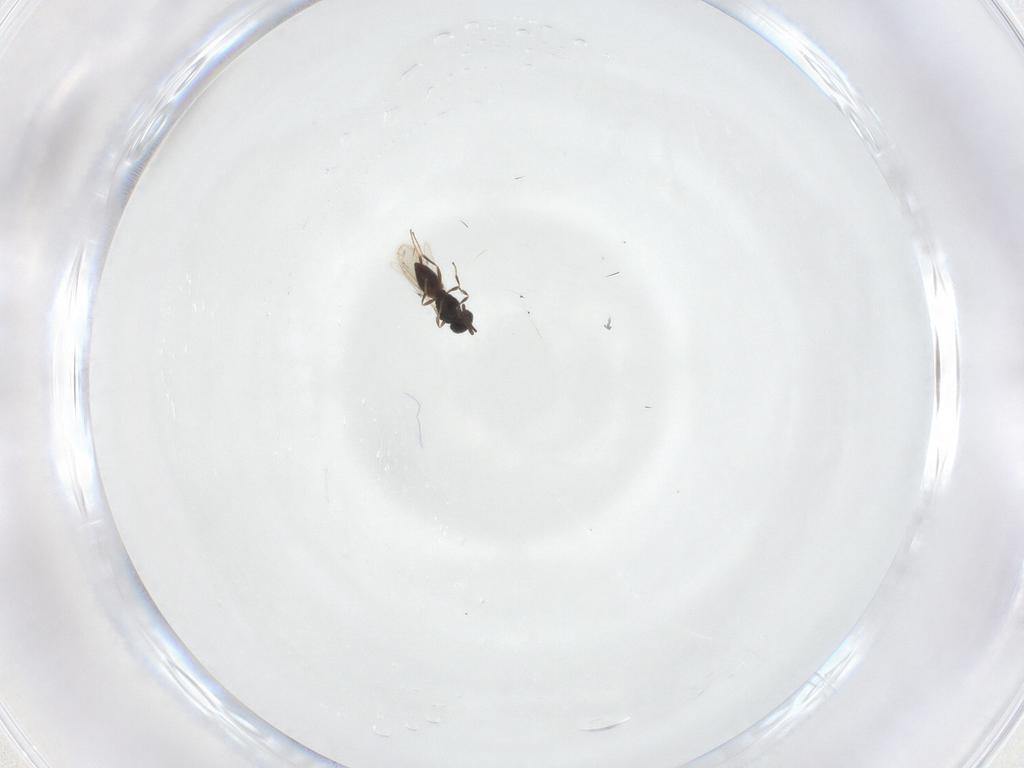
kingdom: Animalia
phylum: Arthropoda
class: Insecta
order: Hymenoptera
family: Scelionidae
